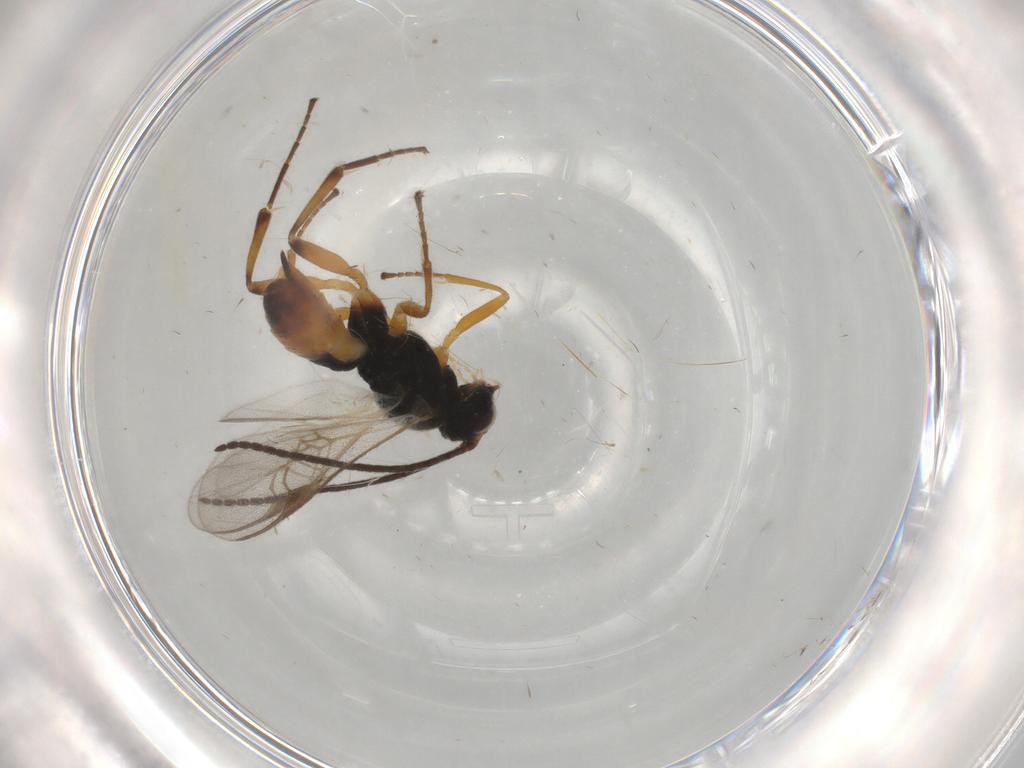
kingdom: Animalia
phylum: Arthropoda
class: Insecta
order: Hymenoptera
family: Braconidae
